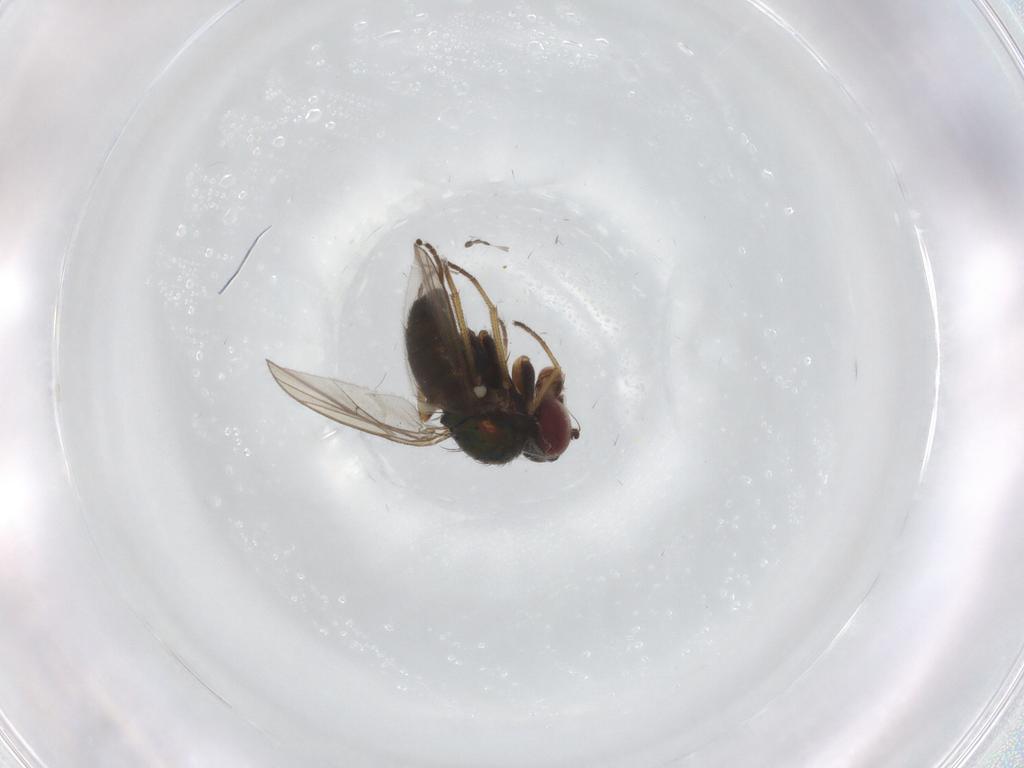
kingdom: Animalia
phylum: Arthropoda
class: Insecta
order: Diptera
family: Dolichopodidae
